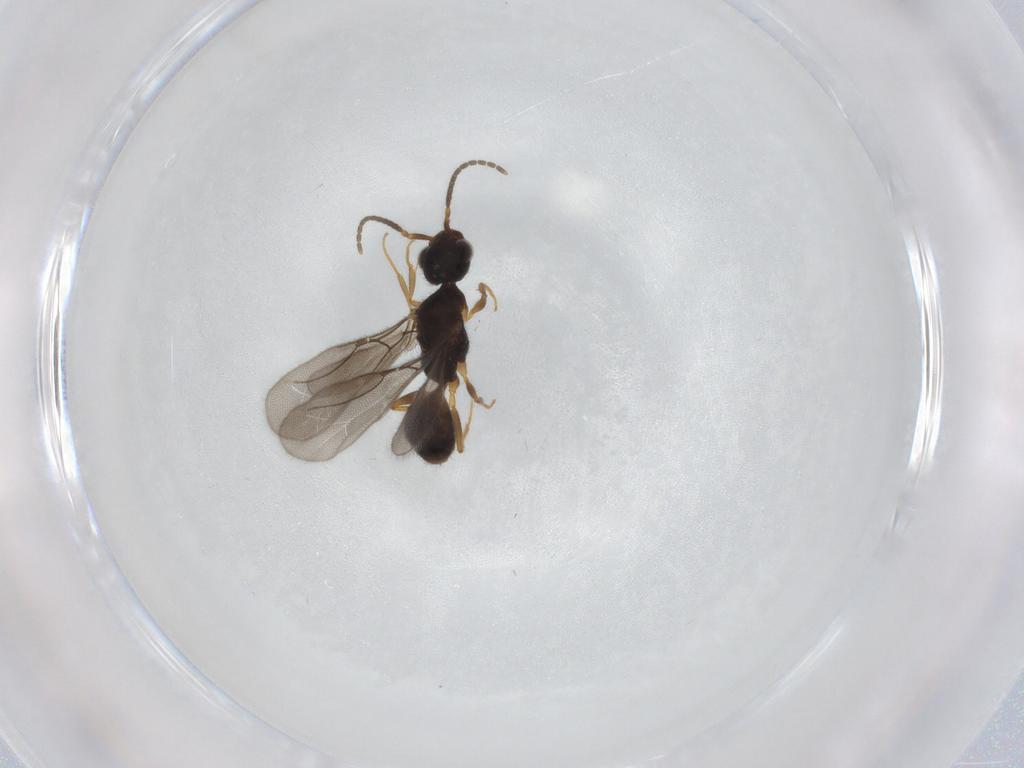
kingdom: Animalia
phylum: Arthropoda
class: Insecta
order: Hymenoptera
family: Bethylidae
